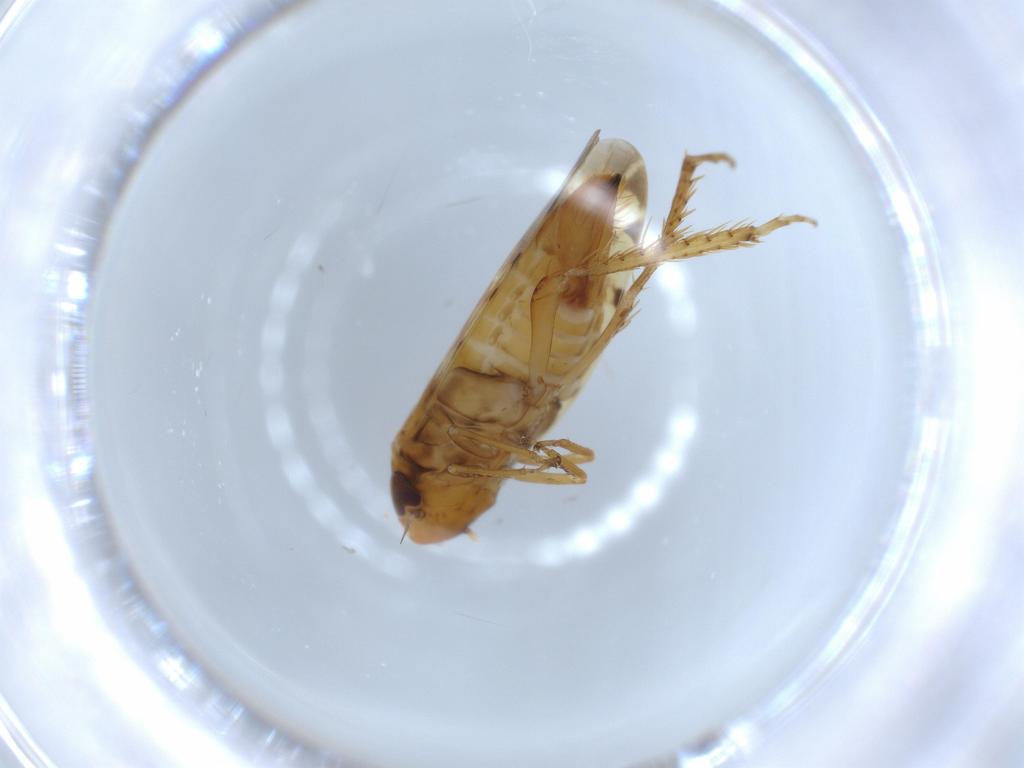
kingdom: Animalia
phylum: Arthropoda
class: Insecta
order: Hemiptera
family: Cicadellidae
